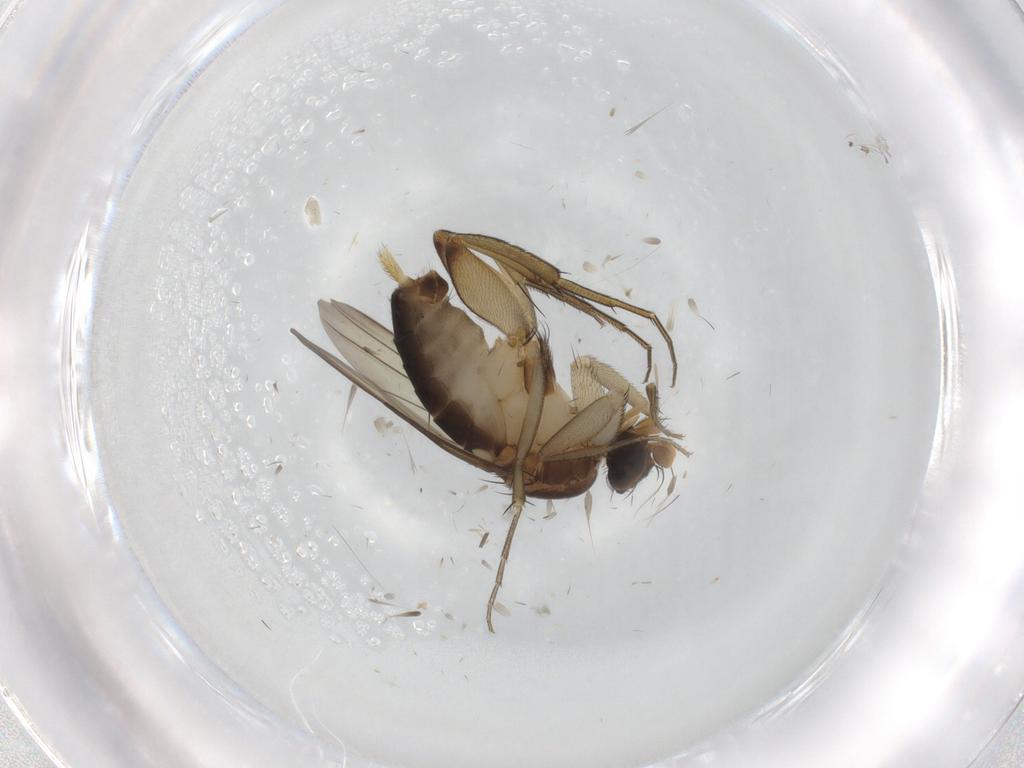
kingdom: Animalia
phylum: Arthropoda
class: Insecta
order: Diptera
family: Phoridae
